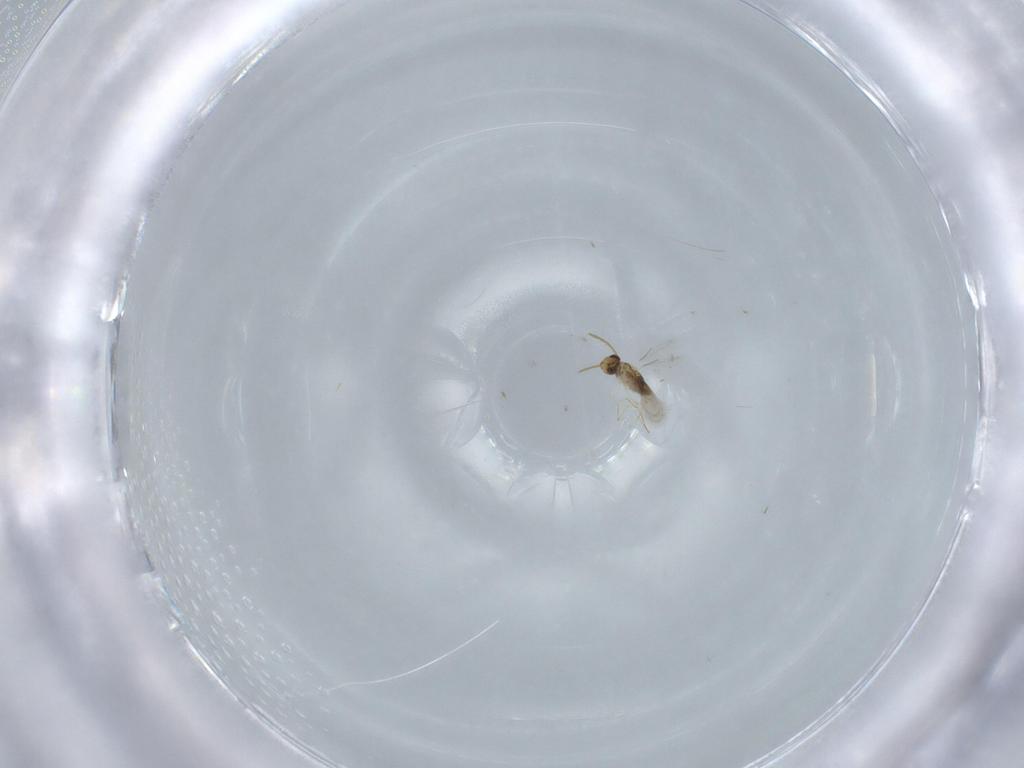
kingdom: Animalia
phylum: Arthropoda
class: Insecta
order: Hymenoptera
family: Aphelinidae
